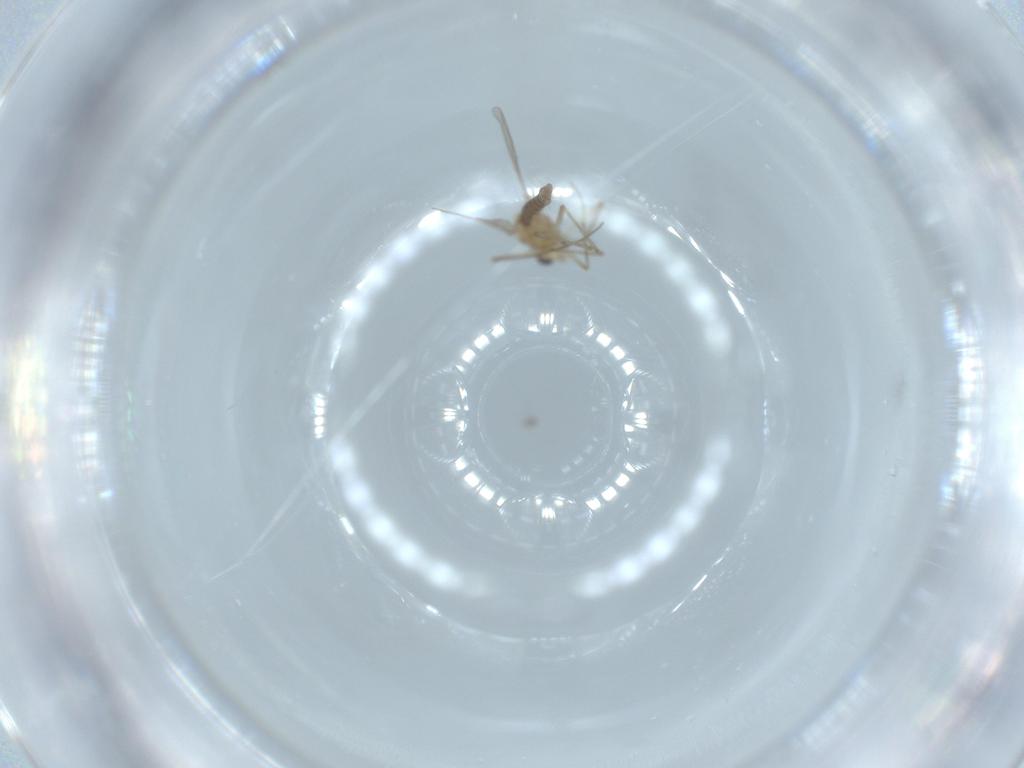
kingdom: Animalia
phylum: Arthropoda
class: Insecta
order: Diptera
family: Chironomidae
